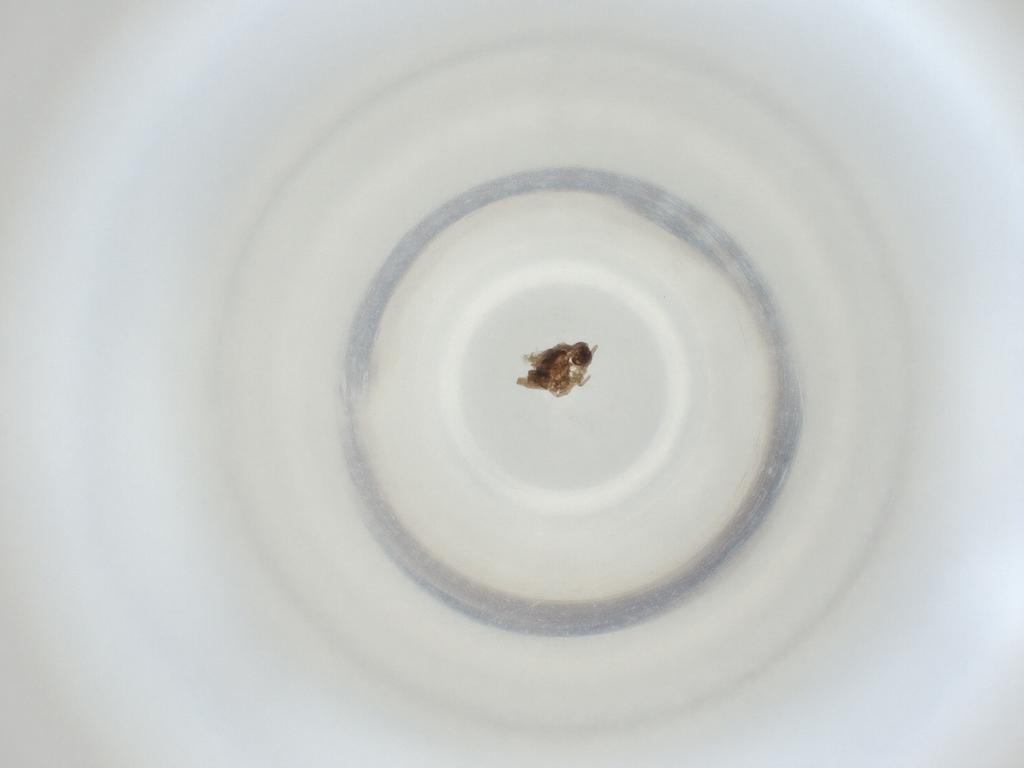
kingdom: Animalia
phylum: Arthropoda
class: Insecta
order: Diptera
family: Cecidomyiidae
